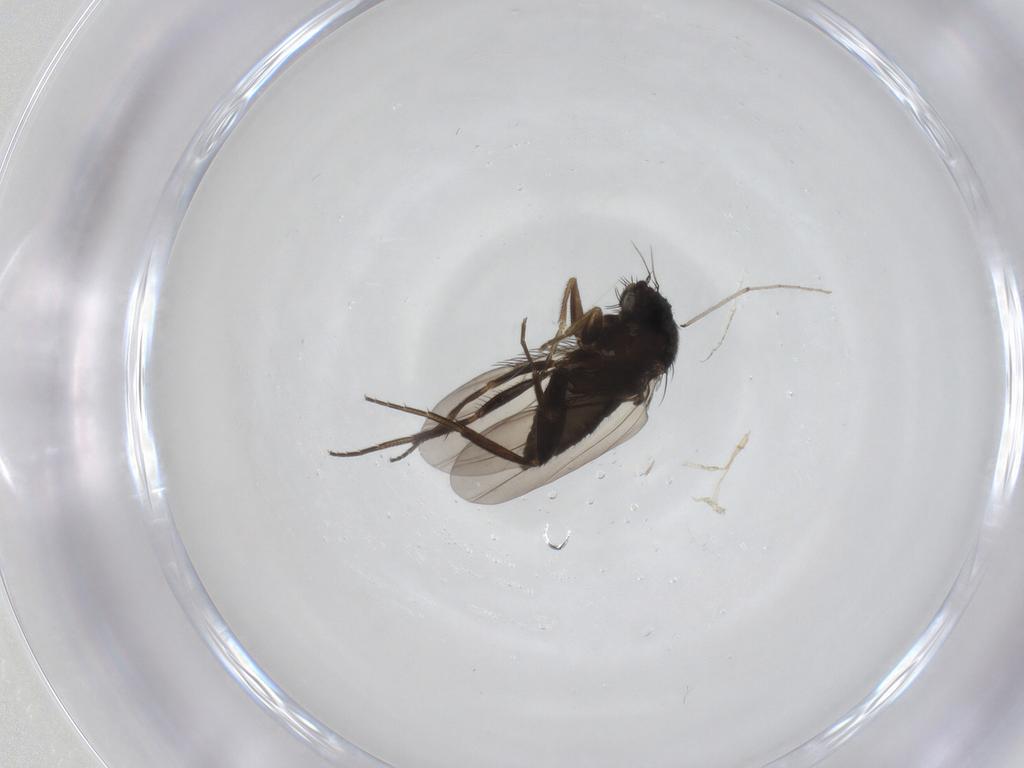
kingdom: Animalia
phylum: Arthropoda
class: Insecta
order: Diptera
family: Phoridae
